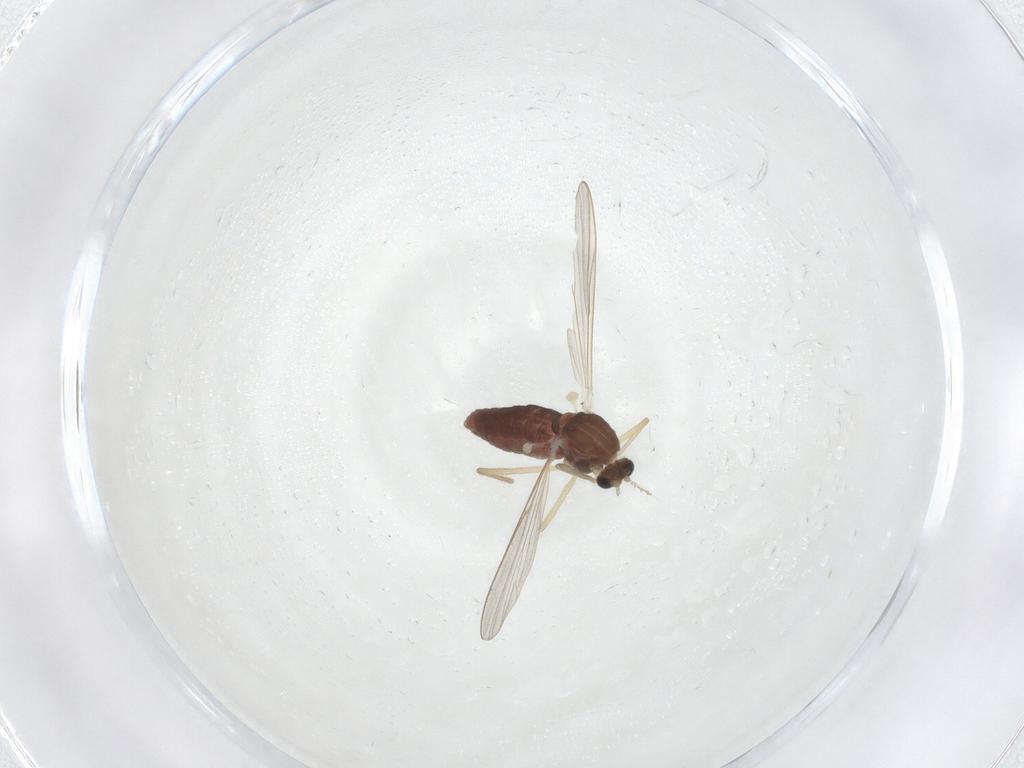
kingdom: Animalia
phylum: Arthropoda
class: Insecta
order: Diptera
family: Chironomidae
